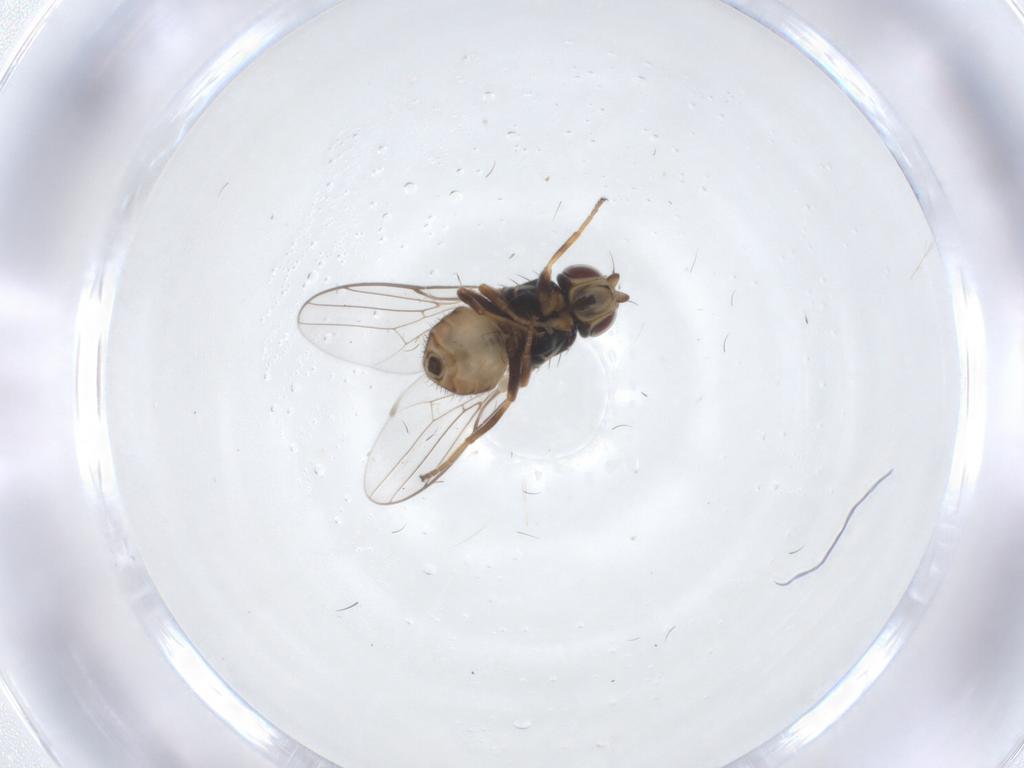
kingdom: Animalia
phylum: Arthropoda
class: Insecta
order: Diptera
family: Chloropidae
